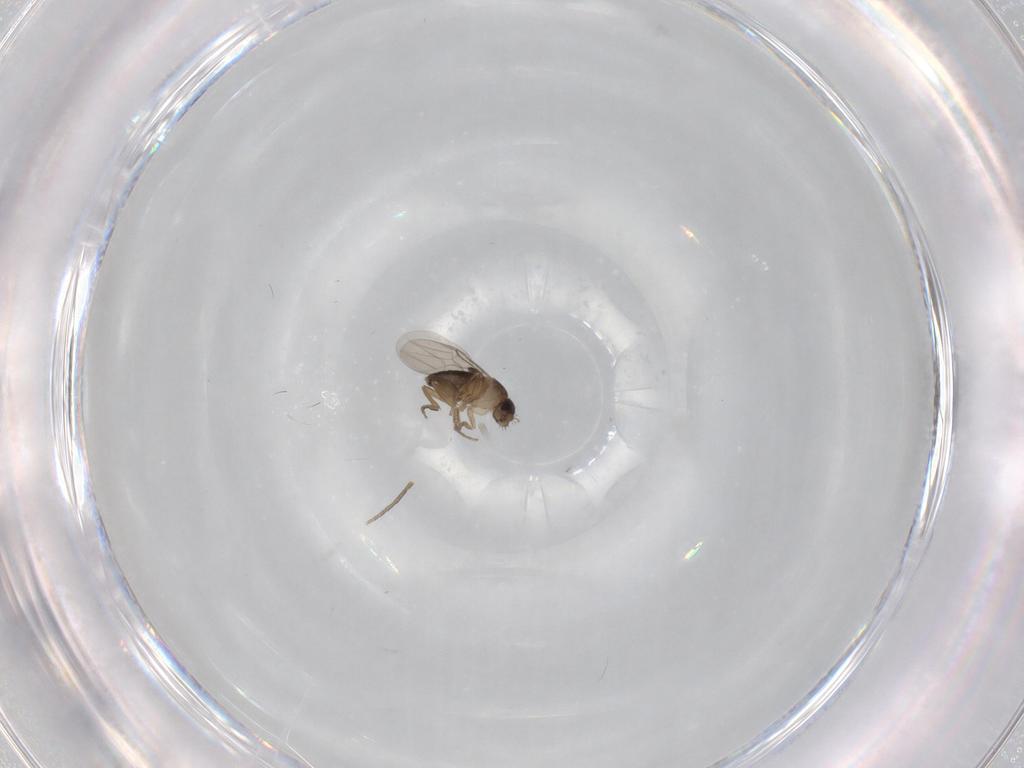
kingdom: Animalia
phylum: Arthropoda
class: Insecta
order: Diptera
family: Phoridae
